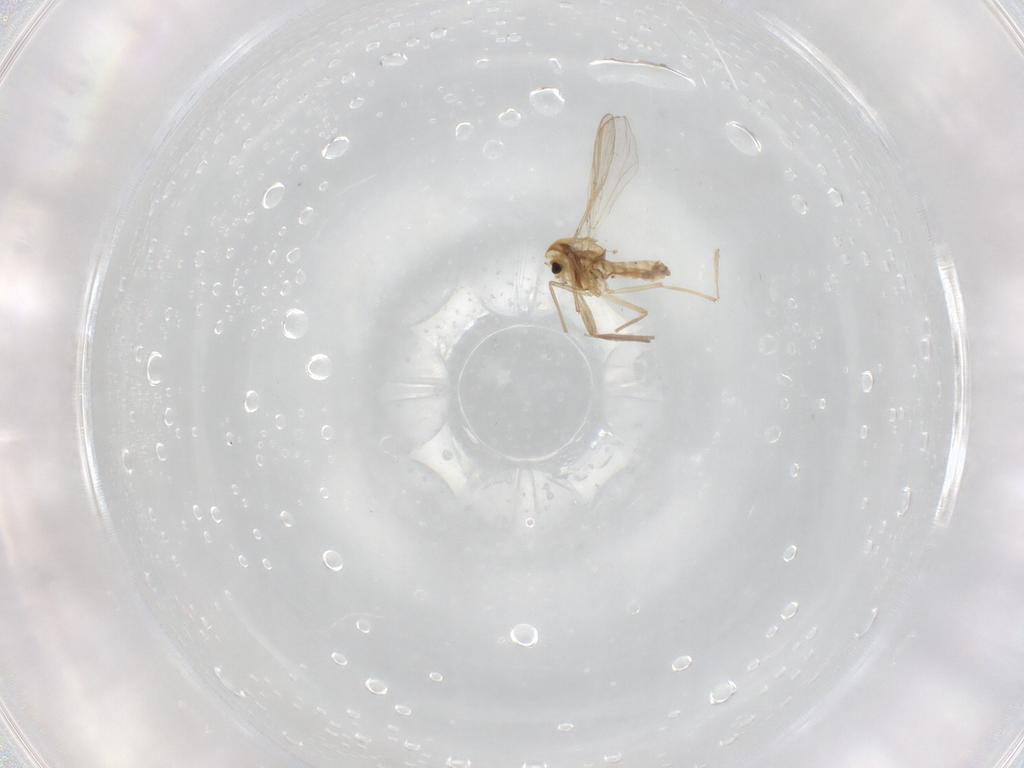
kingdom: Animalia
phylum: Arthropoda
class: Insecta
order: Diptera
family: Chironomidae
